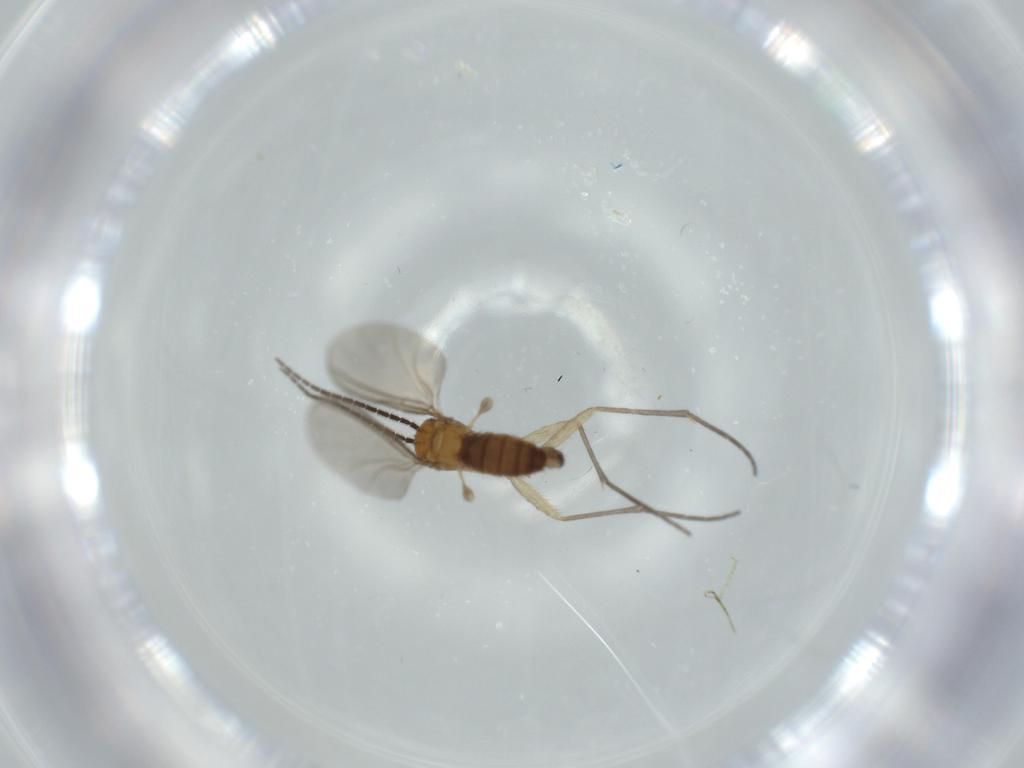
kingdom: Animalia
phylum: Arthropoda
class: Insecta
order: Diptera
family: Sciaridae
